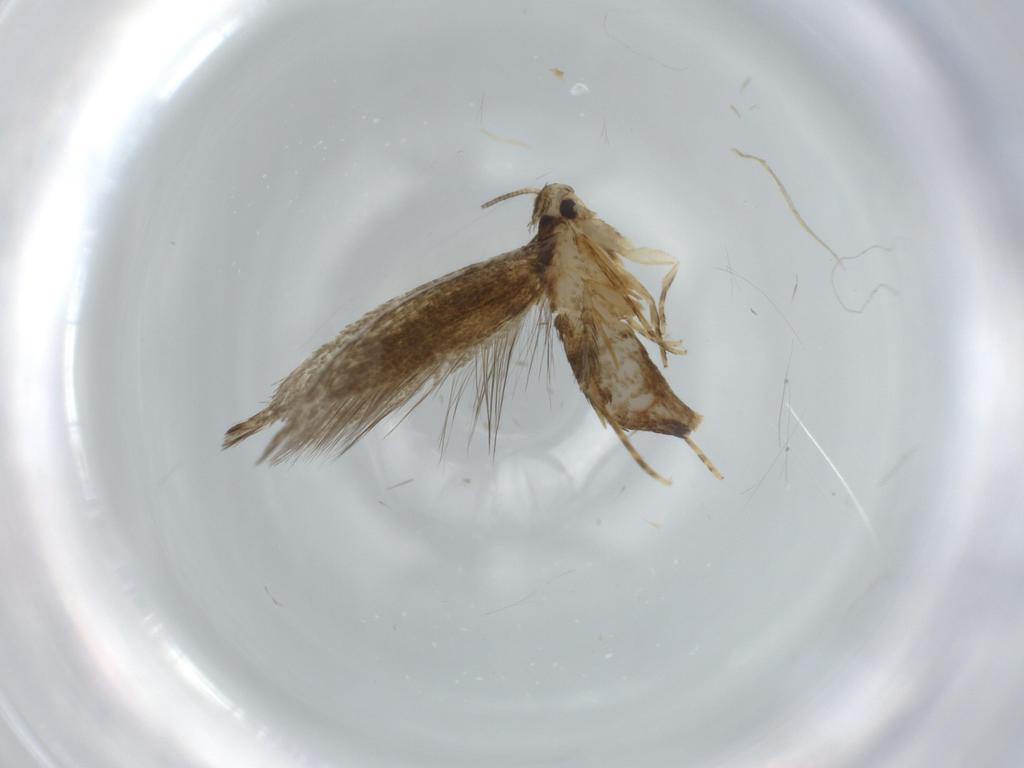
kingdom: Animalia
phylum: Arthropoda
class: Insecta
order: Lepidoptera
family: Tineidae
